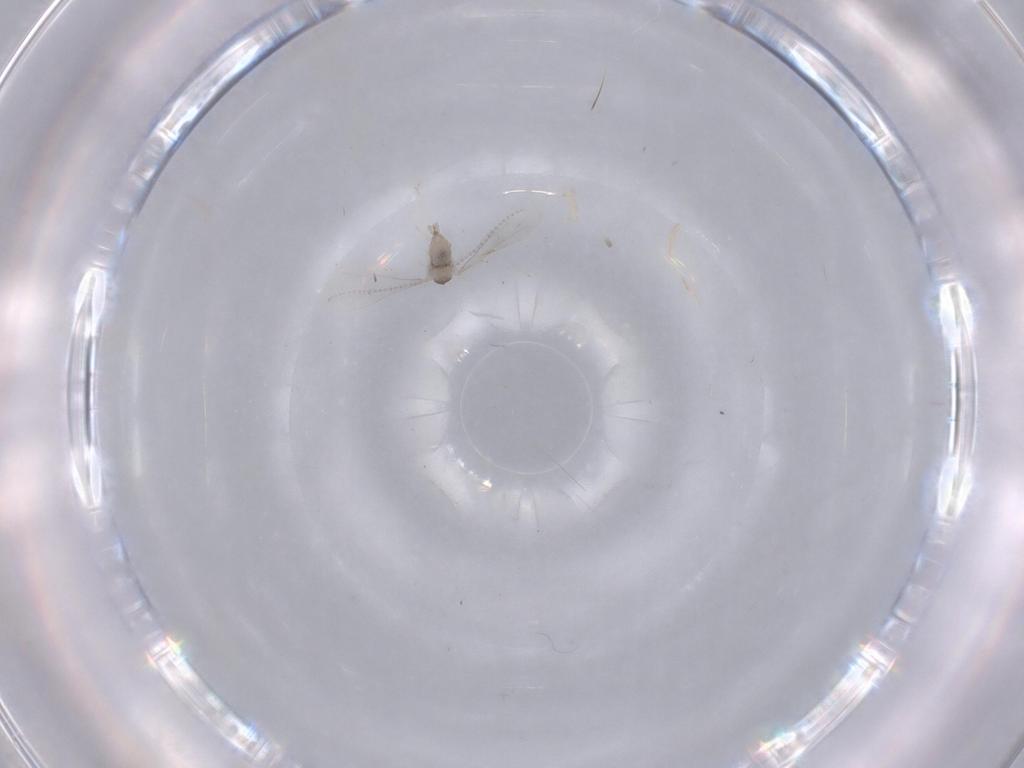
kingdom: Animalia
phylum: Arthropoda
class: Insecta
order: Diptera
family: Cecidomyiidae
